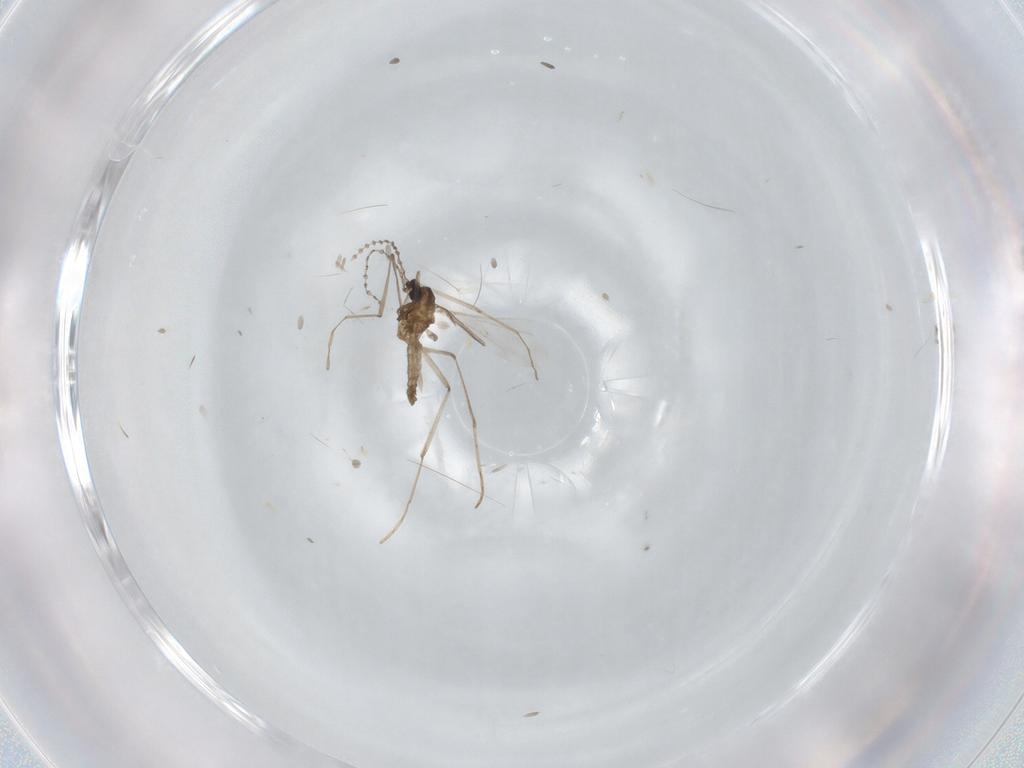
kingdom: Animalia
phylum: Arthropoda
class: Insecta
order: Diptera
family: Cecidomyiidae
